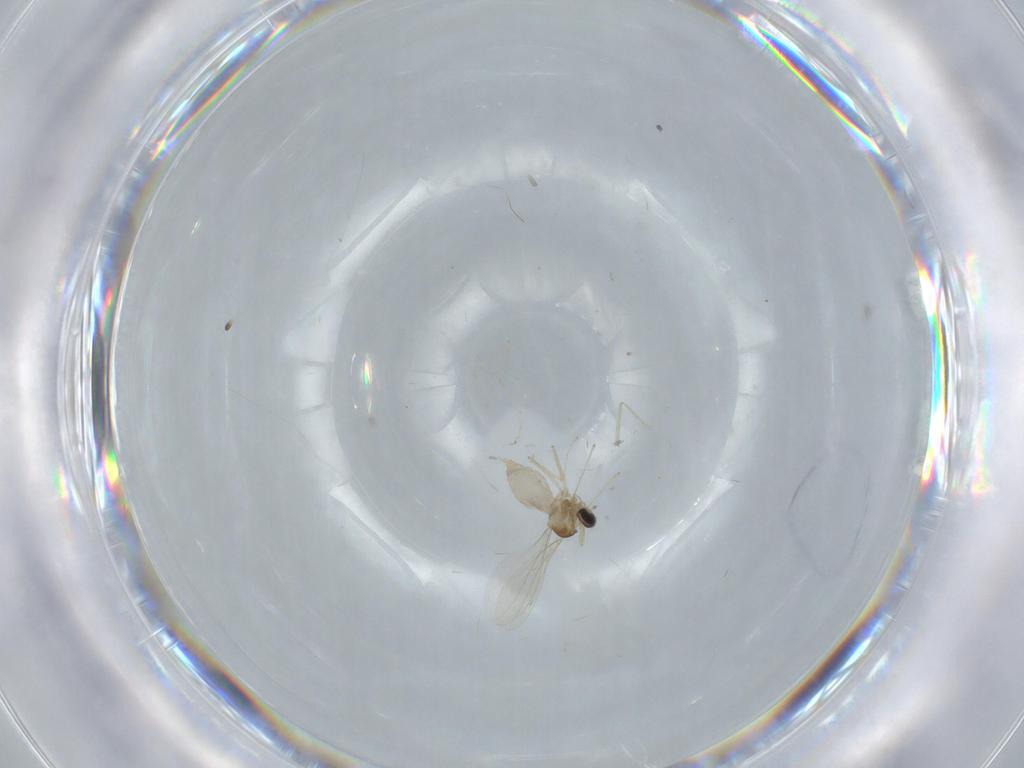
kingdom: Animalia
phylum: Arthropoda
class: Insecta
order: Diptera
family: Cecidomyiidae
